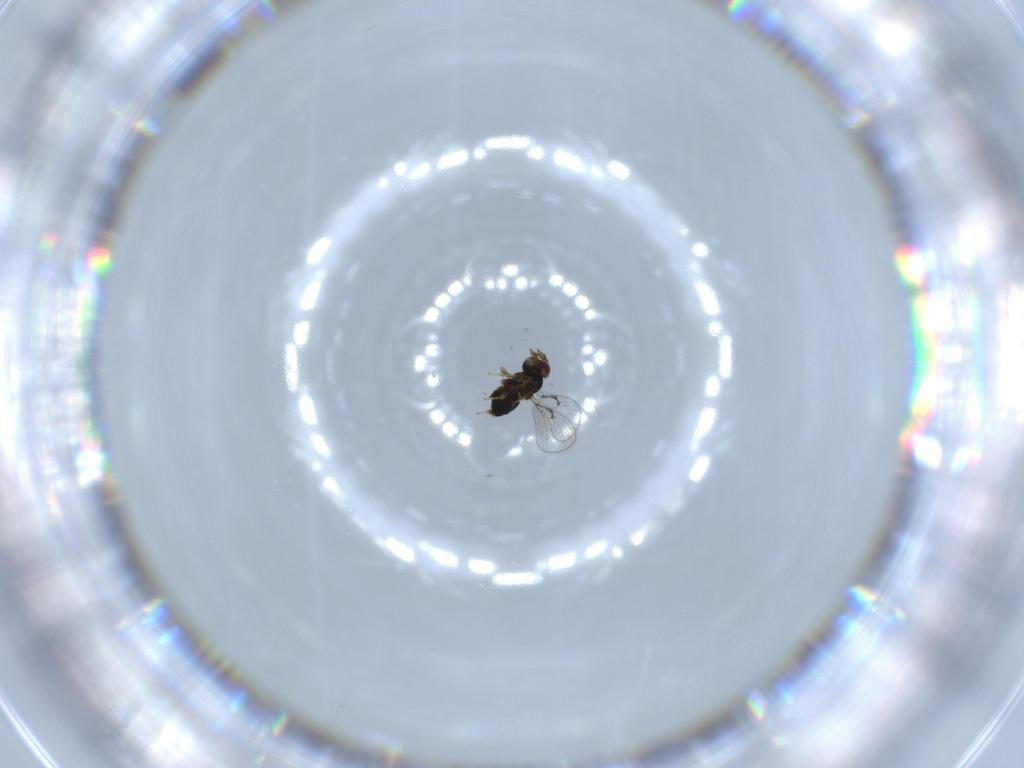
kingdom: Animalia
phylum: Arthropoda
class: Insecta
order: Hymenoptera
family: Trichogrammatidae
